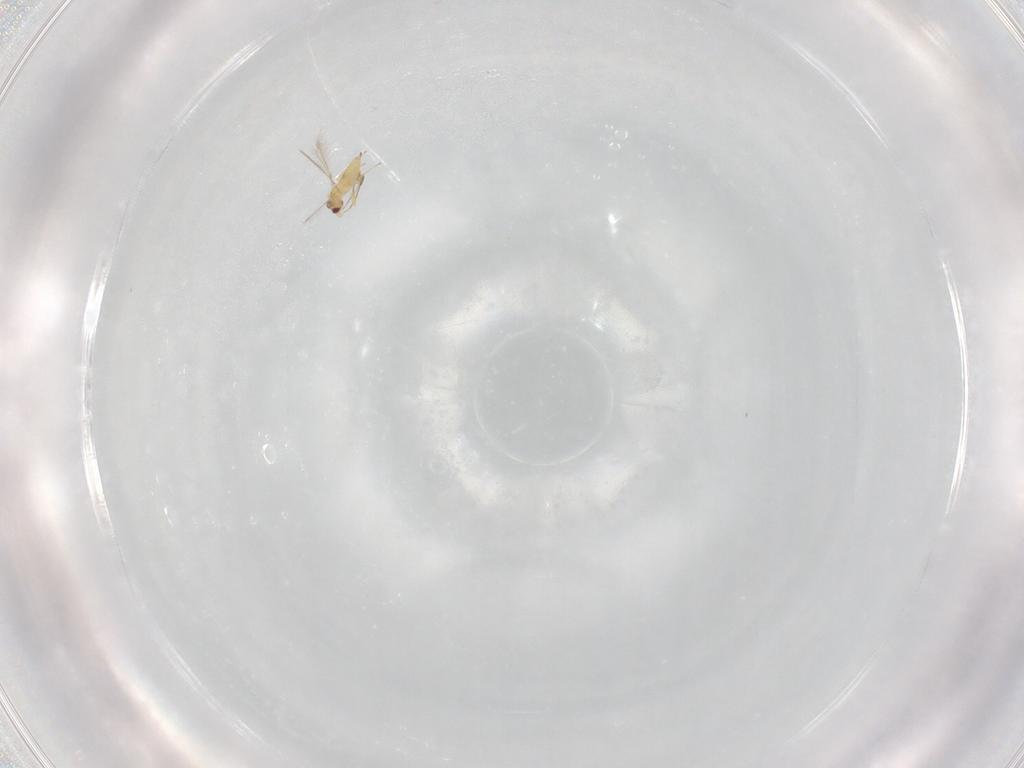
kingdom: Animalia
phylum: Arthropoda
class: Insecta
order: Hymenoptera
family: Mymaridae
